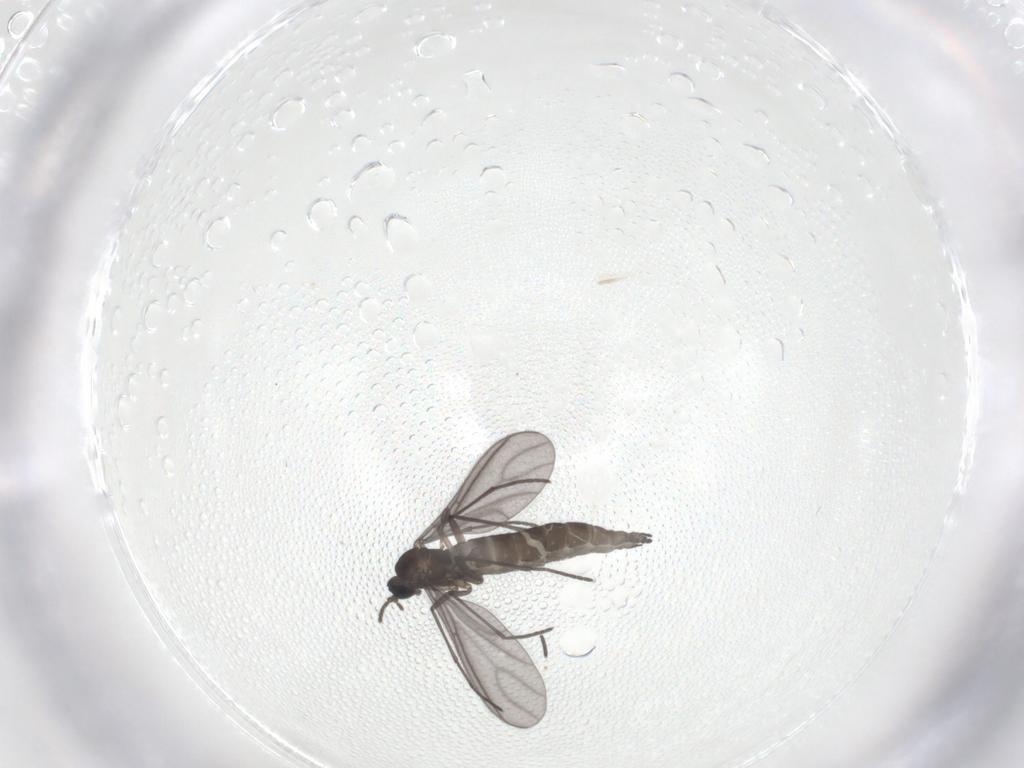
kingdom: Animalia
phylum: Arthropoda
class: Insecta
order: Diptera
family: Sciaridae
